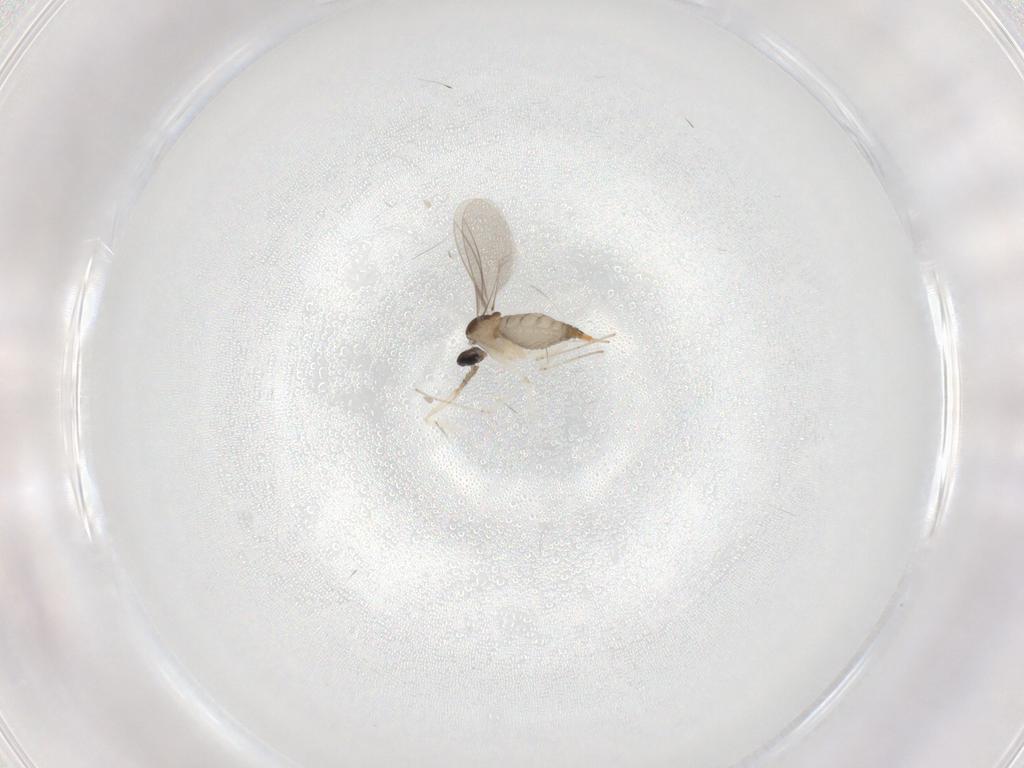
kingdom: Animalia
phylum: Arthropoda
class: Insecta
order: Diptera
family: Cecidomyiidae
